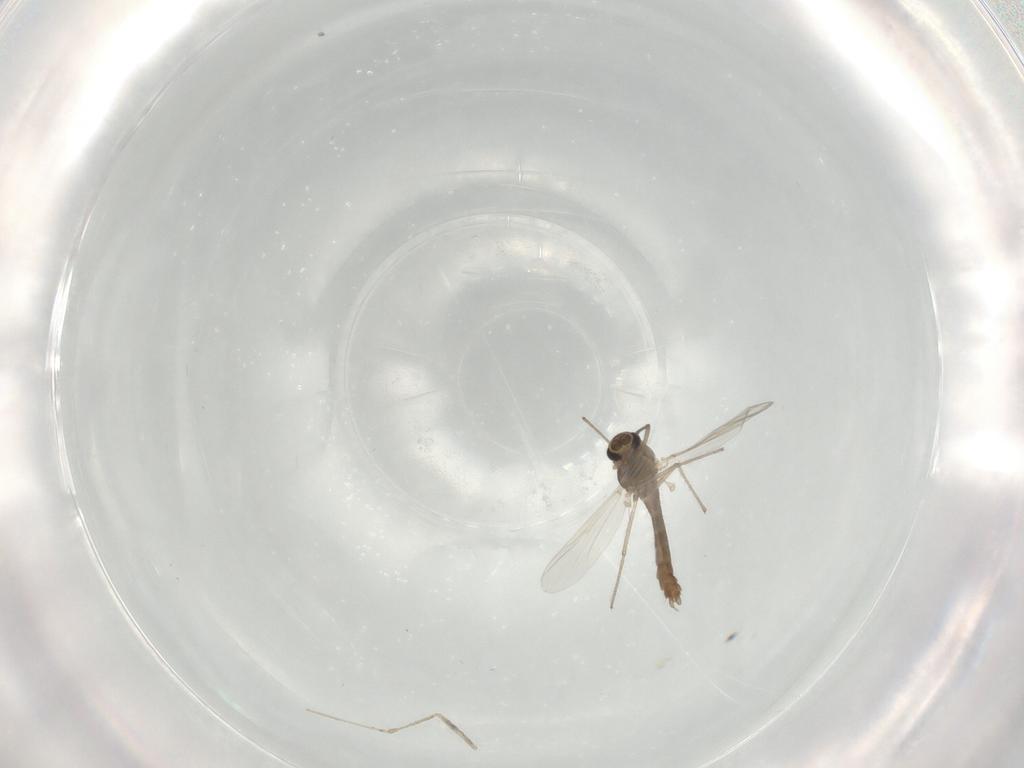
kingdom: Animalia
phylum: Arthropoda
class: Insecta
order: Diptera
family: Chironomidae
